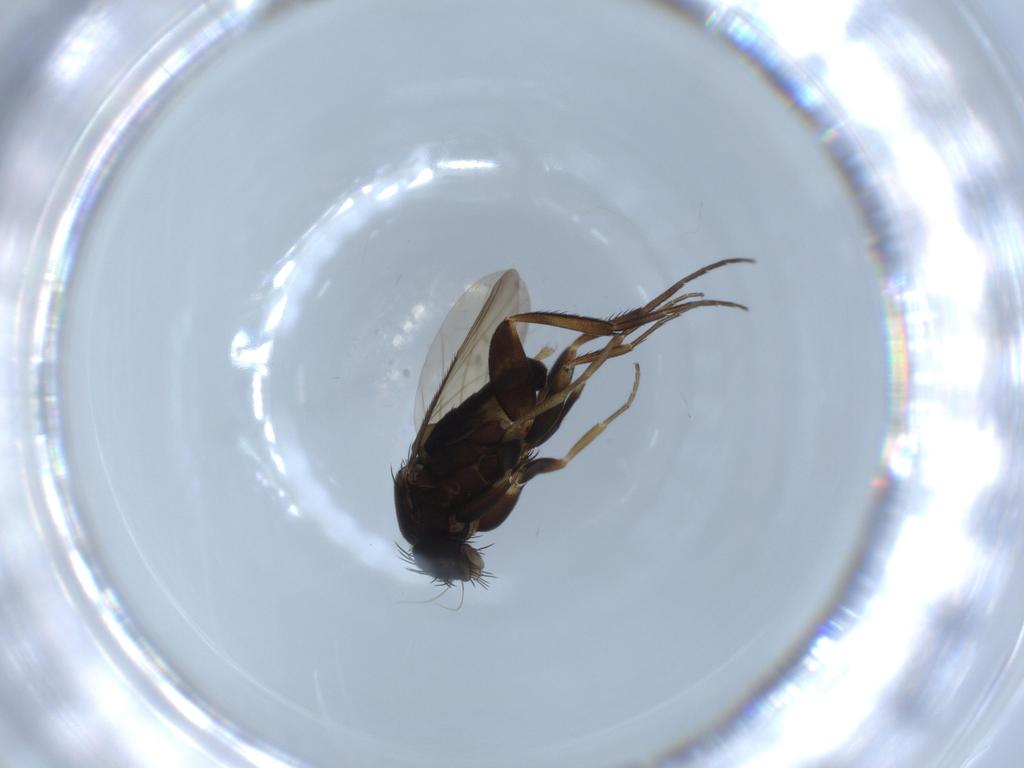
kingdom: Animalia
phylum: Arthropoda
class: Insecta
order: Diptera
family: Phoridae
